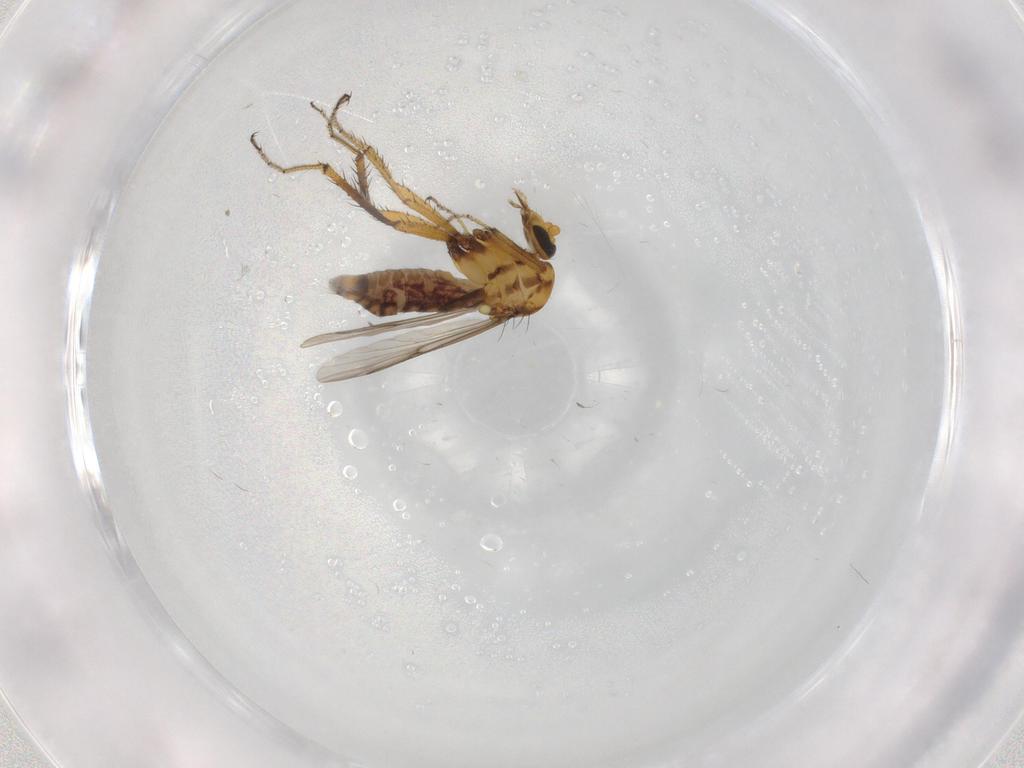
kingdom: Animalia
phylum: Arthropoda
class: Insecta
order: Diptera
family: Ceratopogonidae
